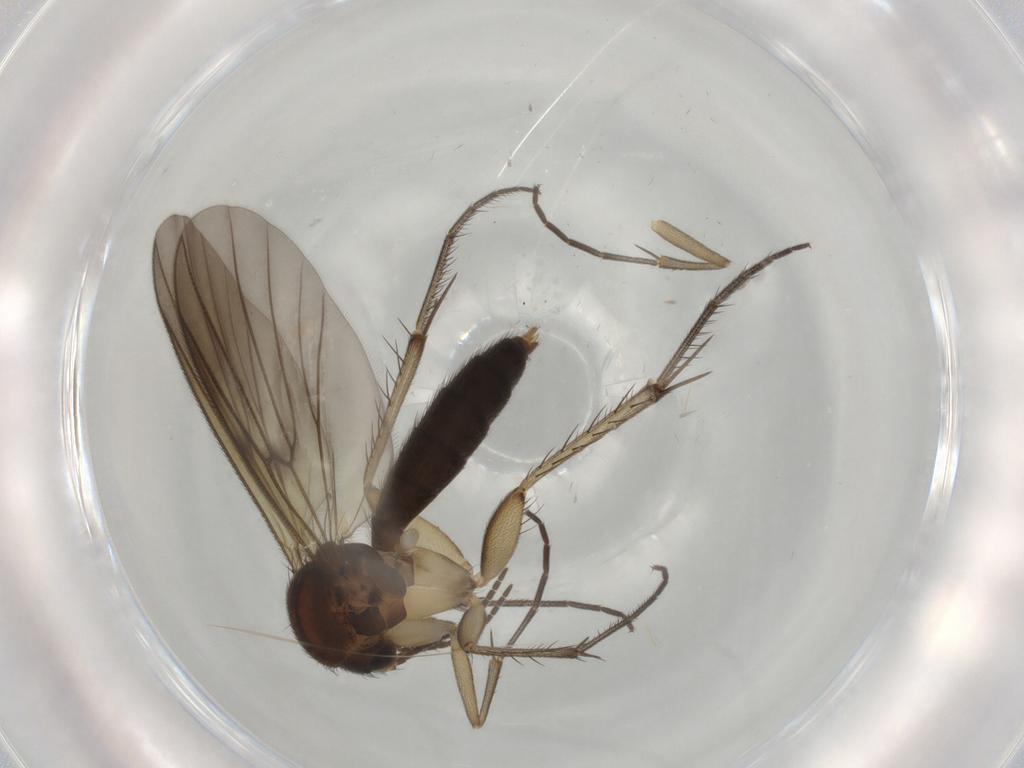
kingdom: Animalia
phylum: Arthropoda
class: Insecta
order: Diptera
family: Mycetophilidae
